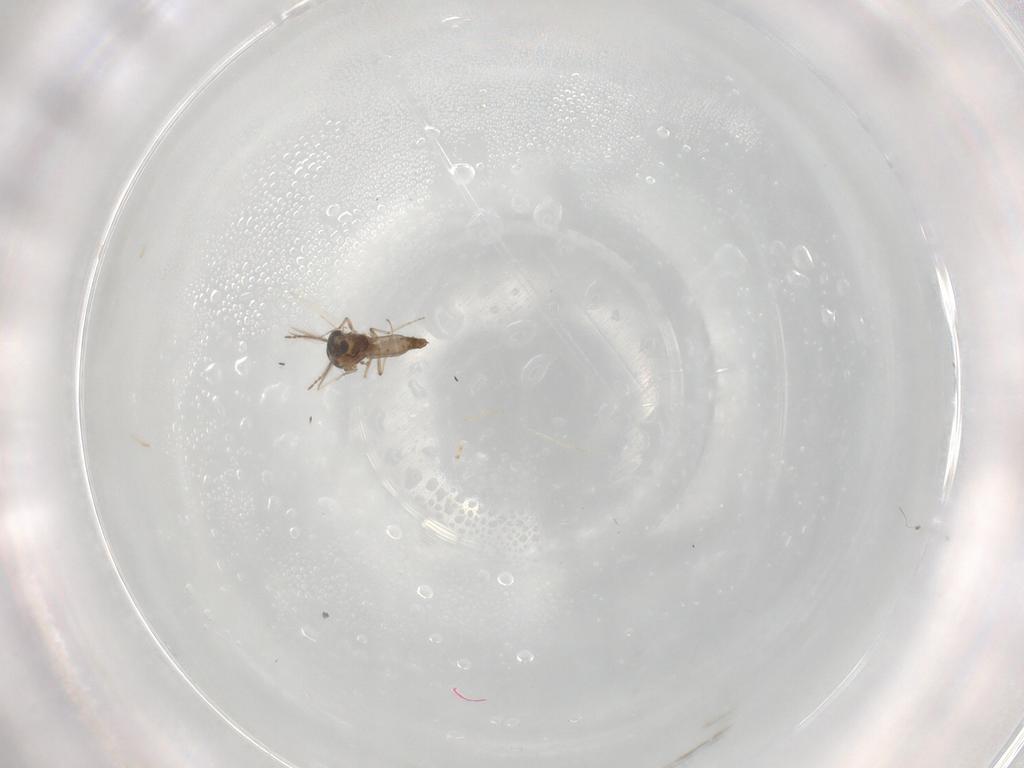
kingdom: Animalia
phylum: Arthropoda
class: Insecta
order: Diptera
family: Ceratopogonidae
